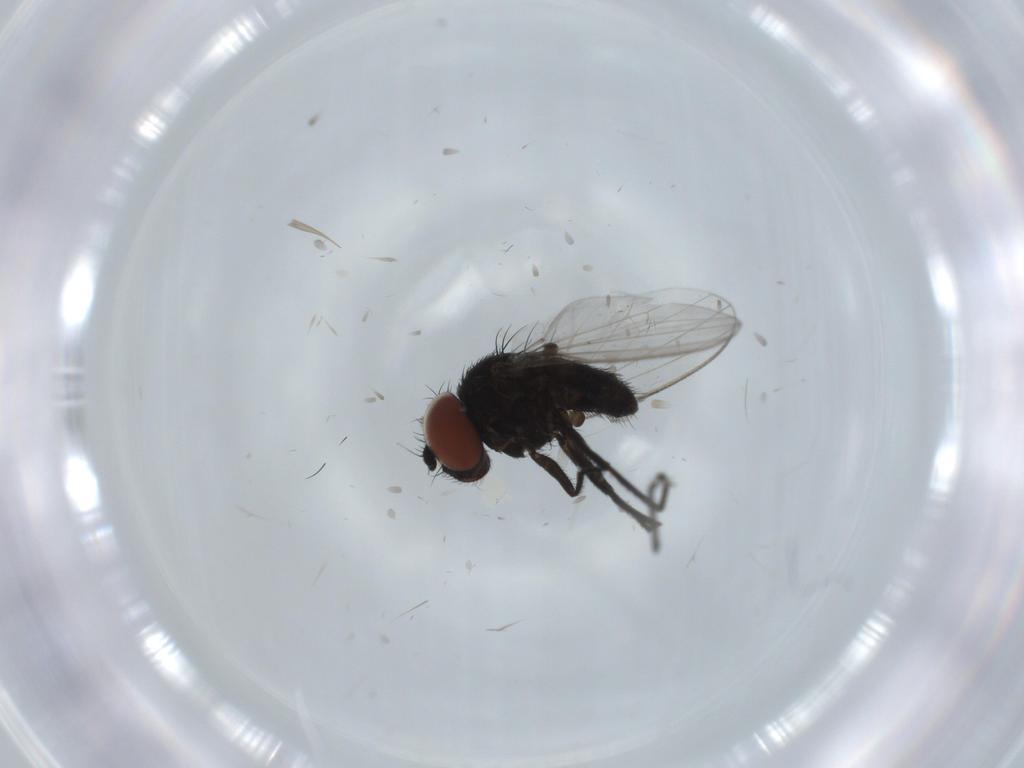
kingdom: Animalia
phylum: Arthropoda
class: Insecta
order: Diptera
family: Milichiidae
